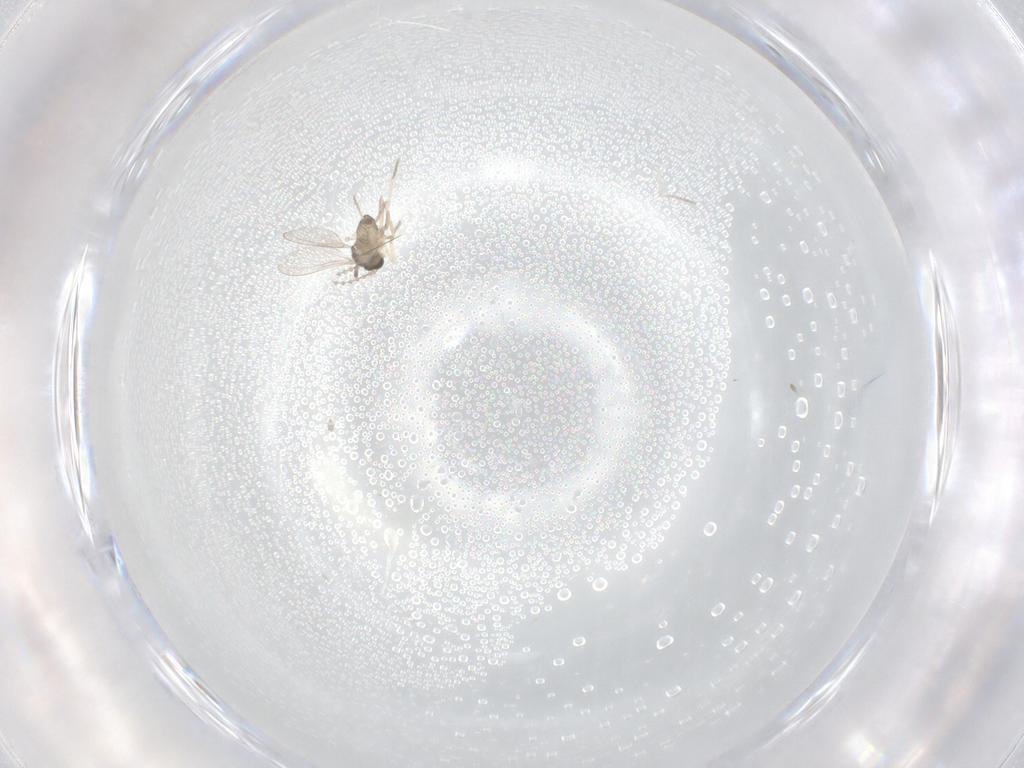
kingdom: Animalia
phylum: Arthropoda
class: Insecta
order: Diptera
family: Cecidomyiidae
